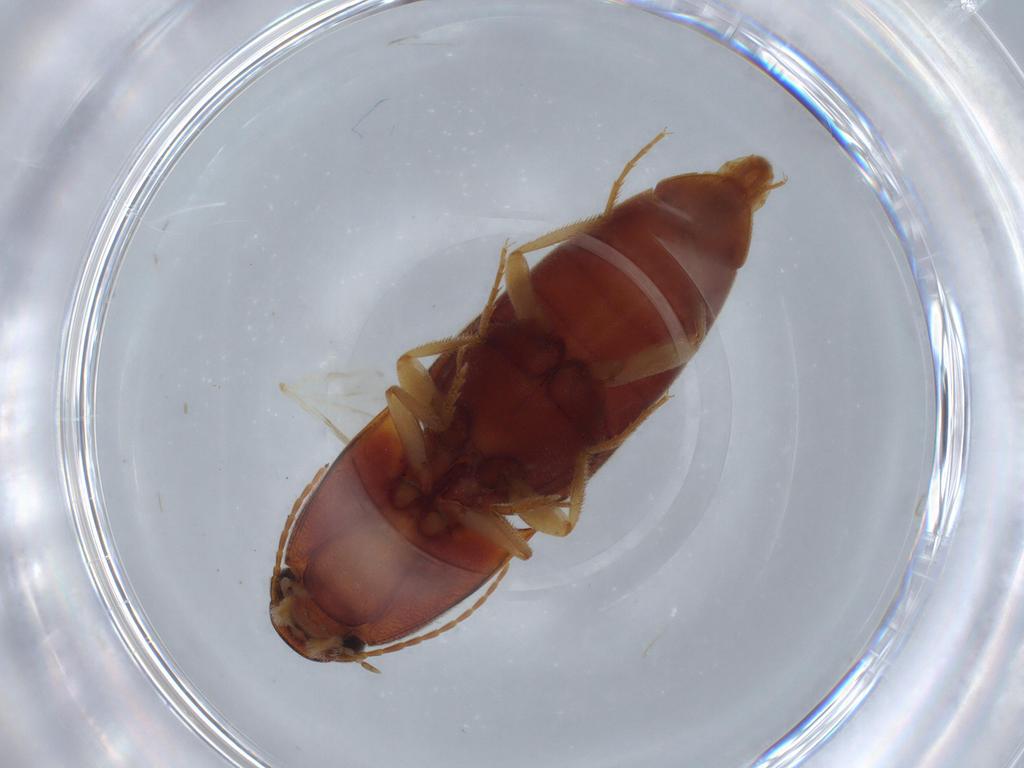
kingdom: Animalia
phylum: Arthropoda
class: Insecta
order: Coleoptera
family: Elateridae
